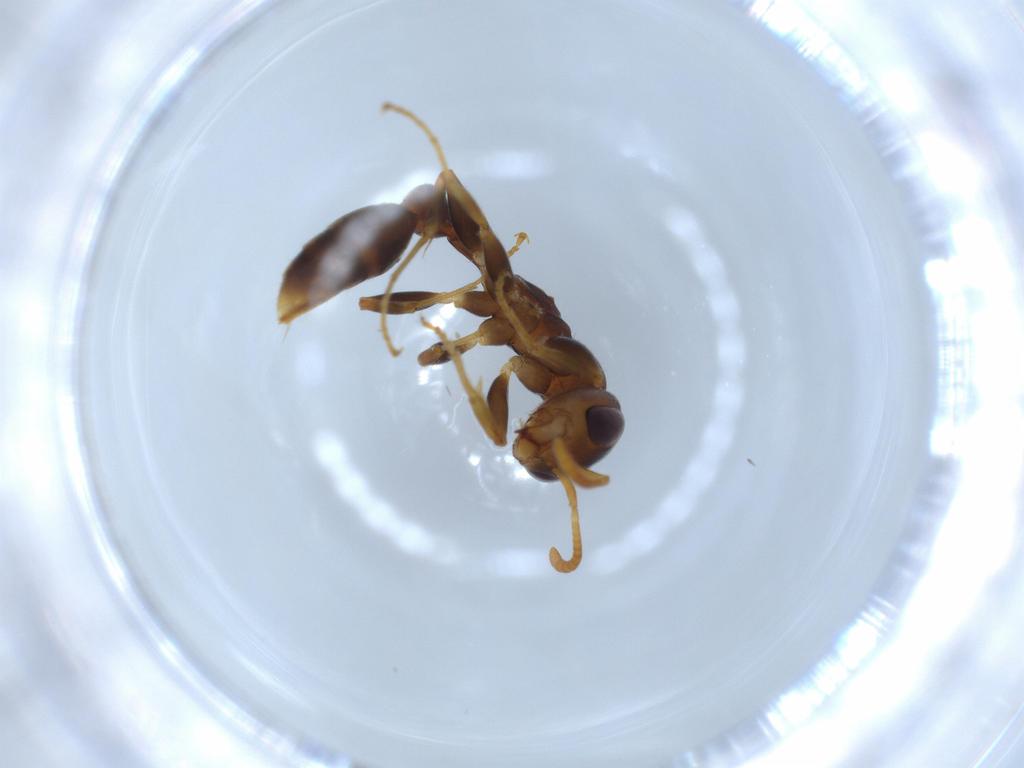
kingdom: Animalia
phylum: Arthropoda
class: Insecta
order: Hymenoptera
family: Formicidae
